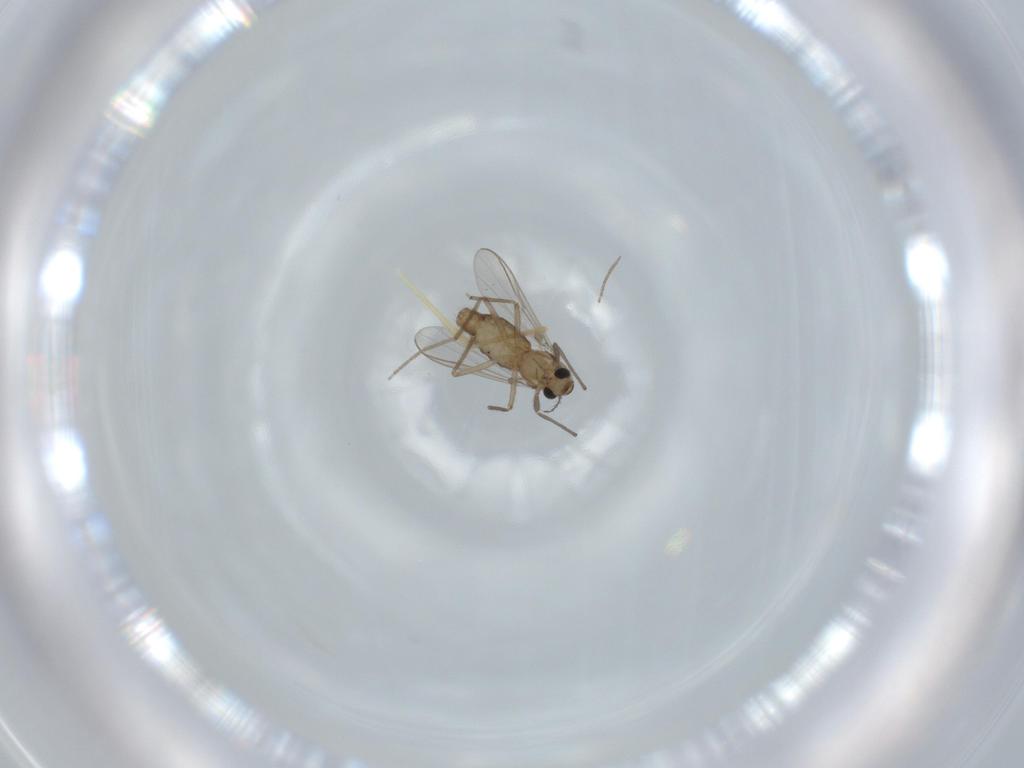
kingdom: Animalia
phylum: Arthropoda
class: Insecta
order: Diptera
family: Chironomidae
